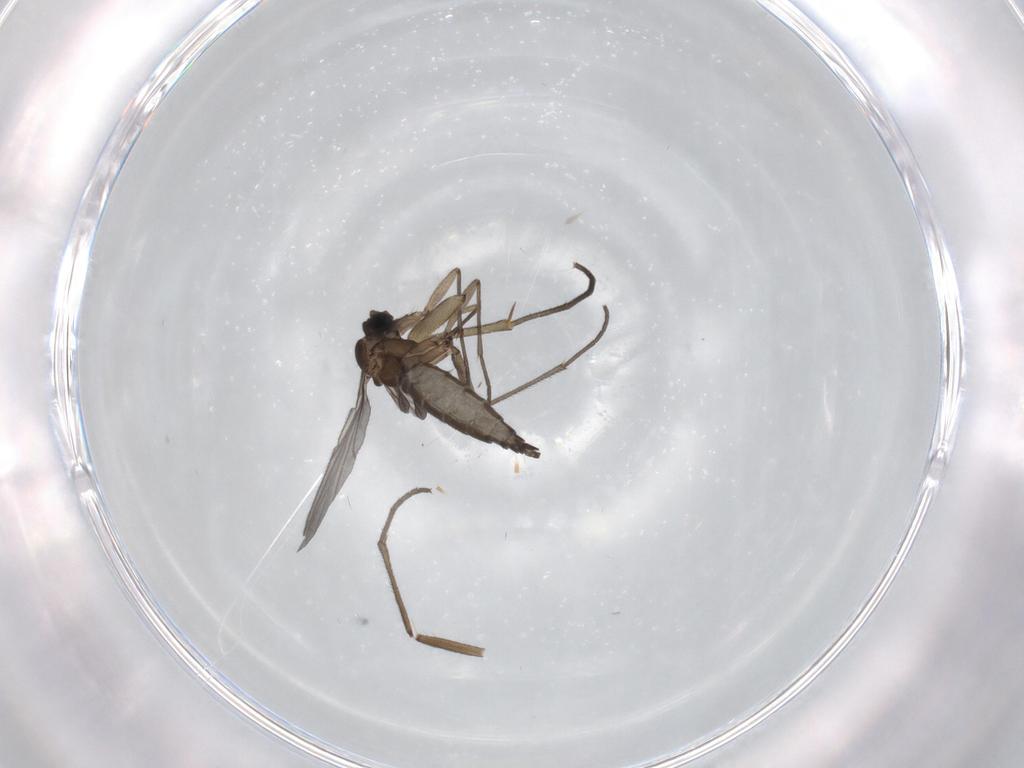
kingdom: Animalia
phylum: Arthropoda
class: Insecta
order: Diptera
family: Sciaridae
